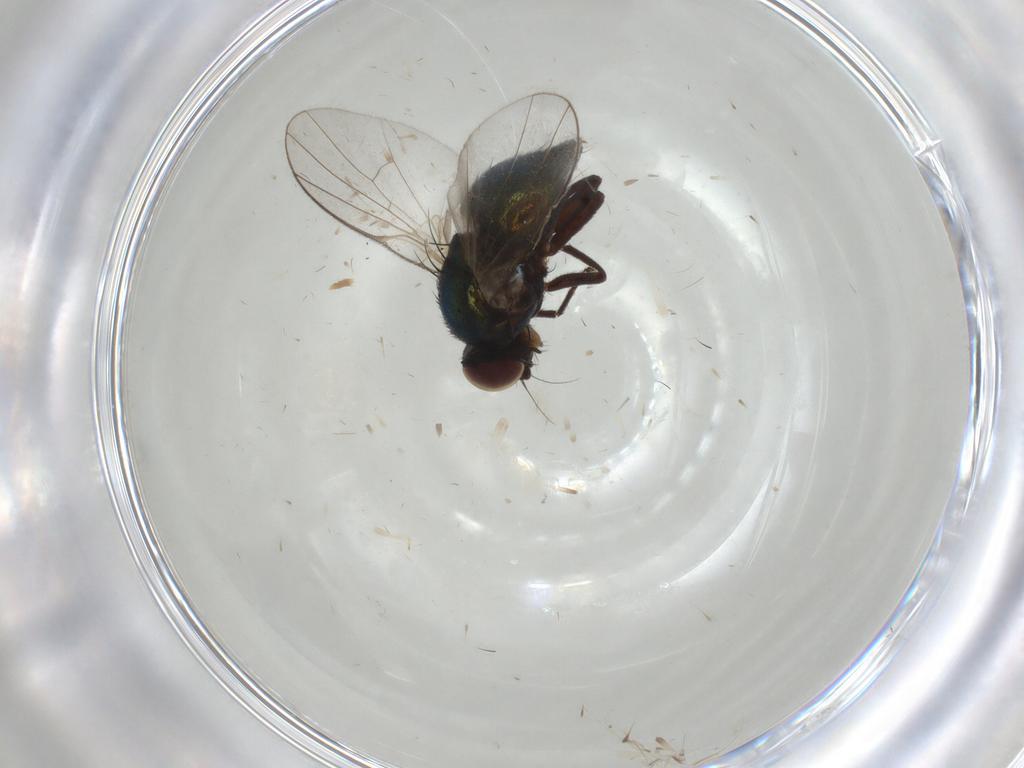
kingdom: Animalia
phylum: Arthropoda
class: Insecta
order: Diptera
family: Agromyzidae
